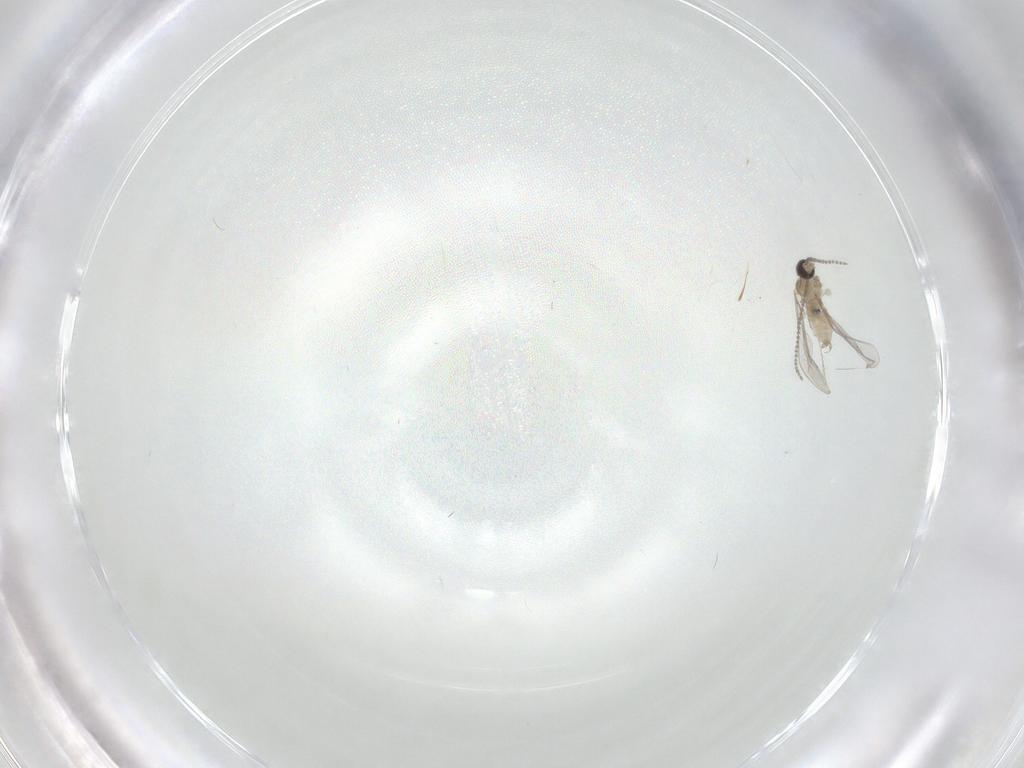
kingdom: Animalia
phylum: Arthropoda
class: Insecta
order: Diptera
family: Cecidomyiidae
